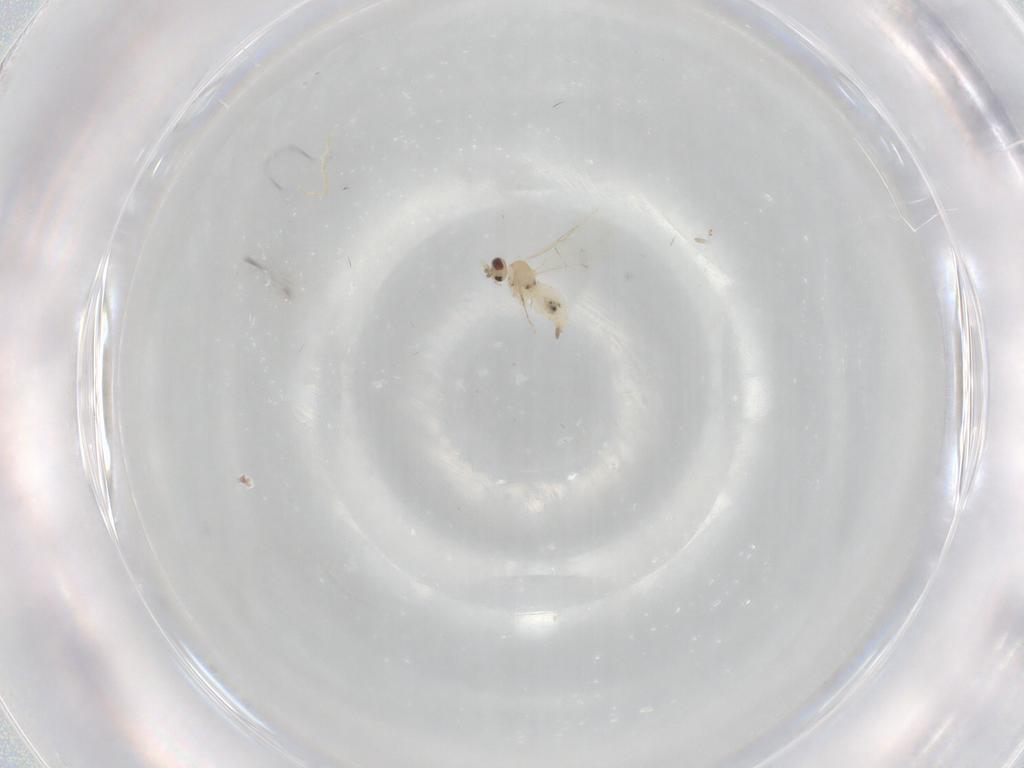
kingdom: Animalia
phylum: Arthropoda
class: Insecta
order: Diptera
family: Cecidomyiidae
